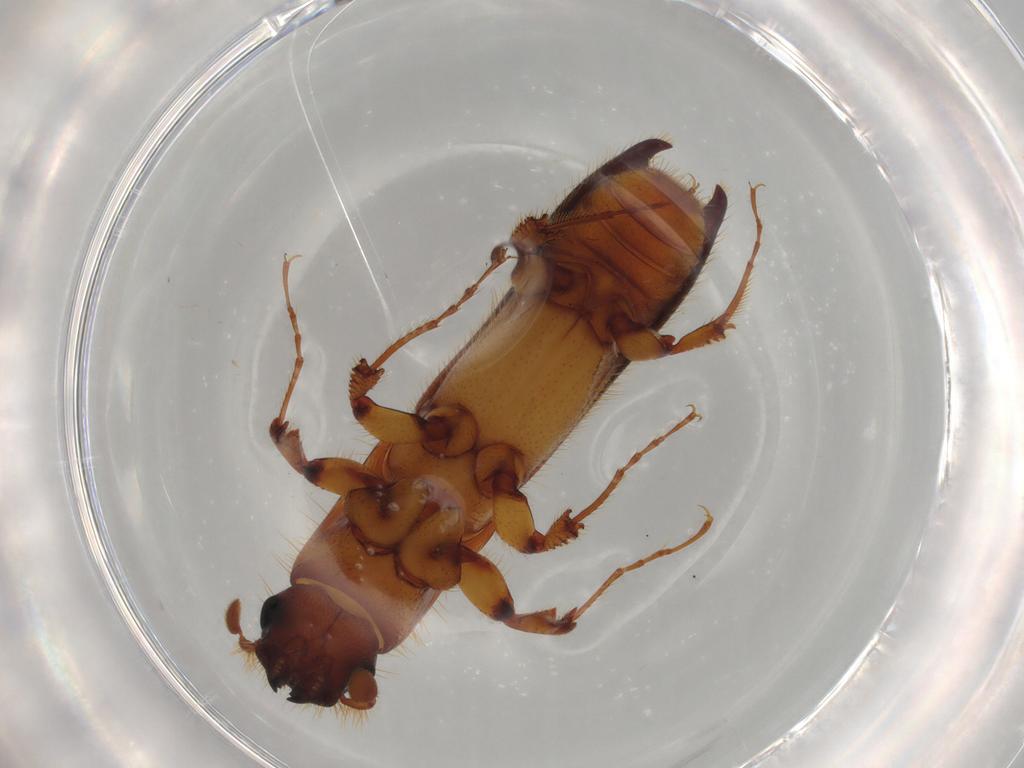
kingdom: Animalia
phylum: Arthropoda
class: Insecta
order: Coleoptera
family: Curculionidae
